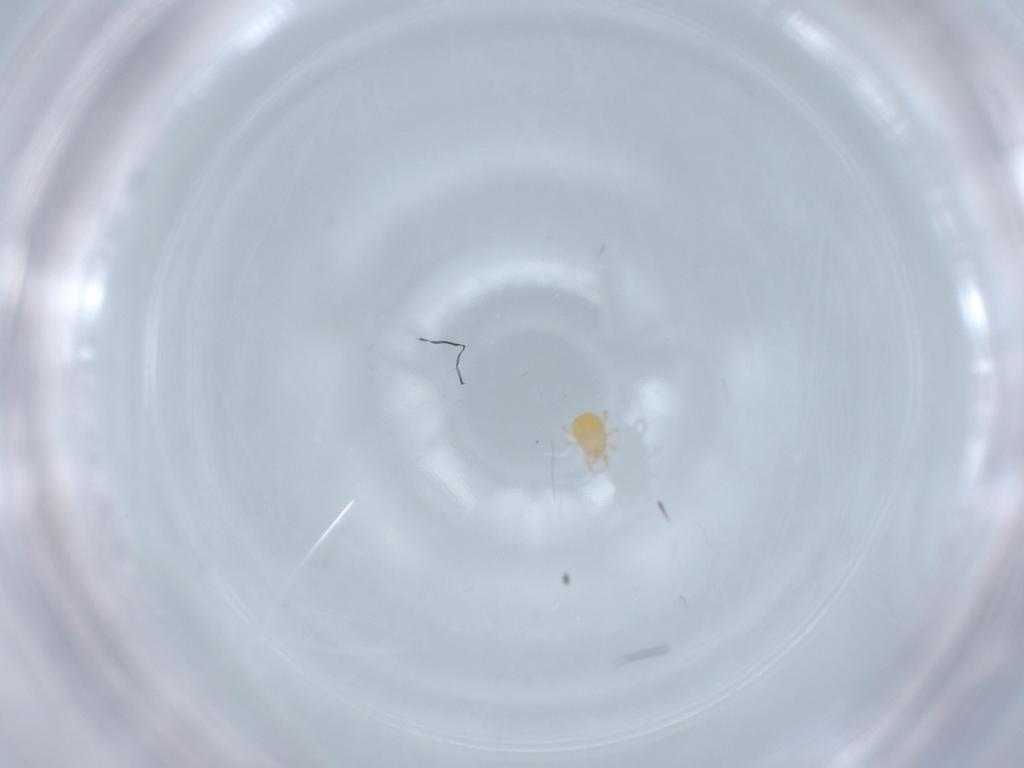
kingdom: Animalia
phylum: Arthropoda
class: Arachnida
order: Mesostigmata
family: Melicharidae
